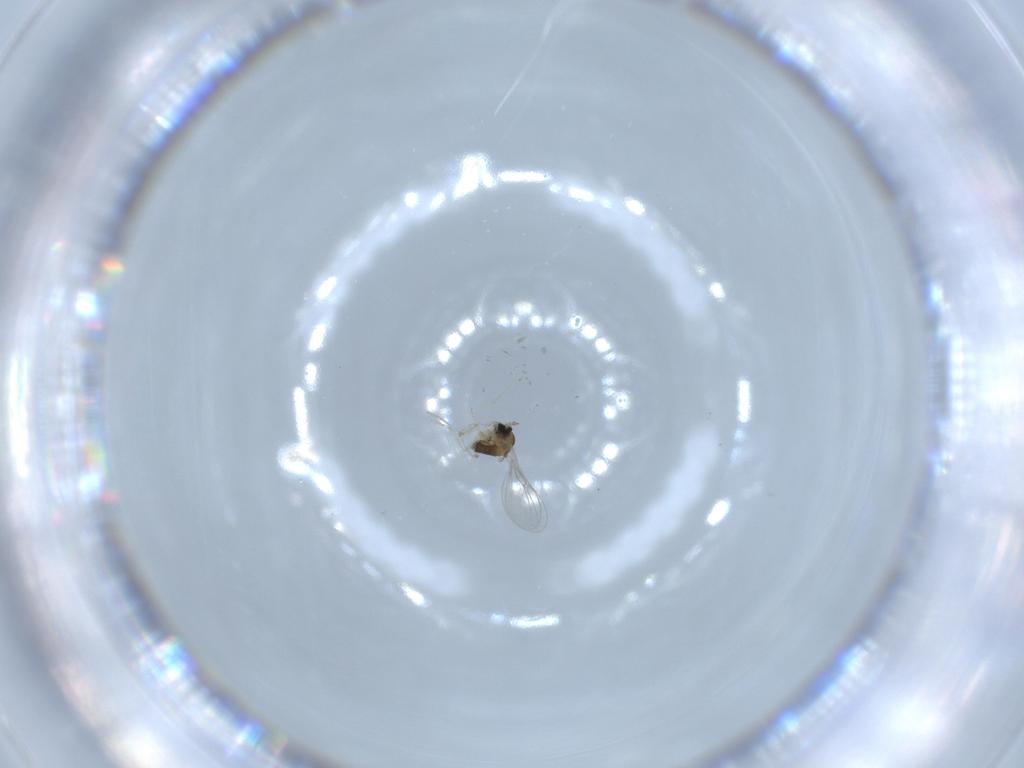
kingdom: Animalia
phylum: Arthropoda
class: Insecta
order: Diptera
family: Cecidomyiidae
